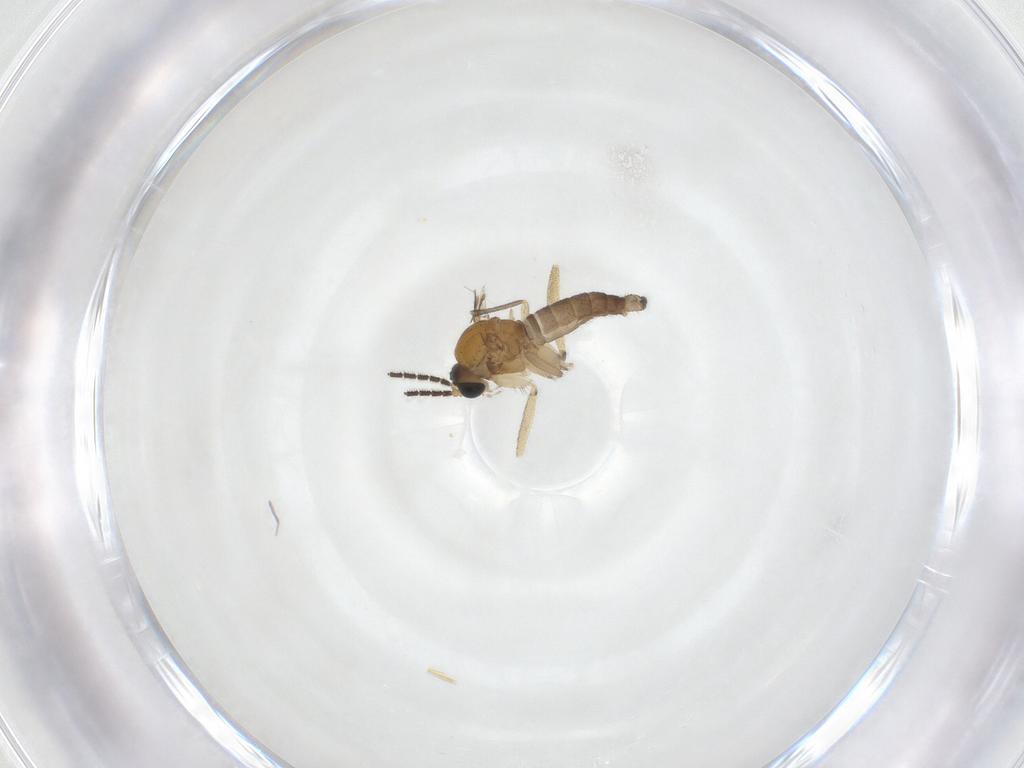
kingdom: Animalia
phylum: Arthropoda
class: Insecta
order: Diptera
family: Sciaridae
